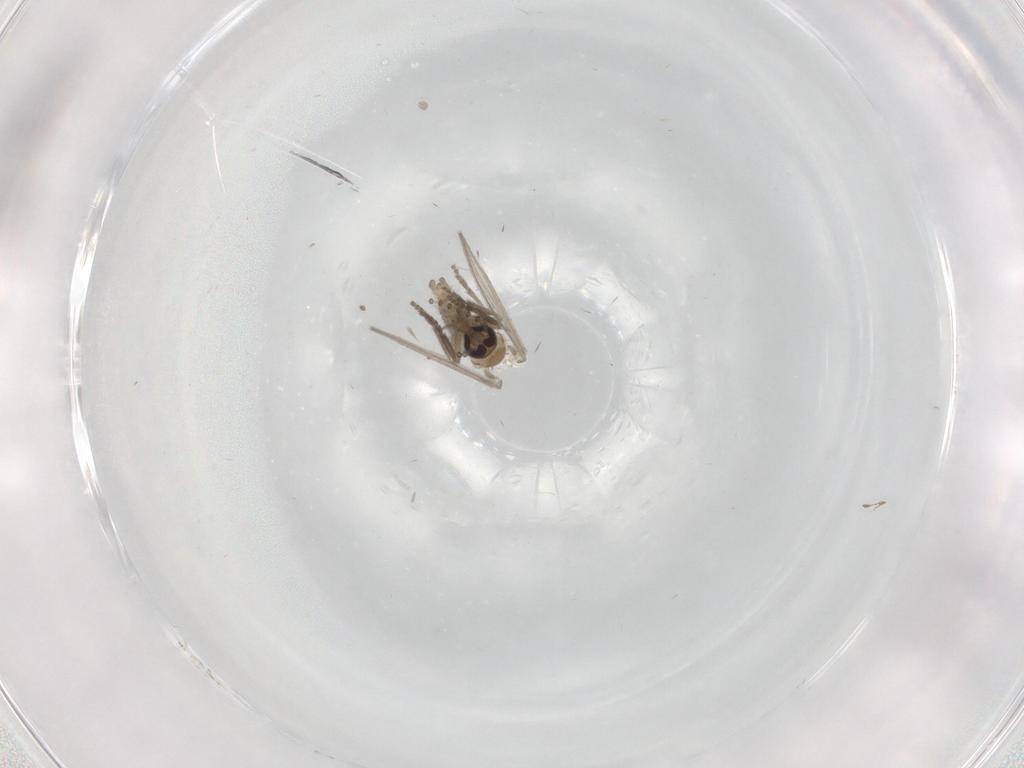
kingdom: Animalia
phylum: Arthropoda
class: Insecta
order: Diptera
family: Psychodidae
